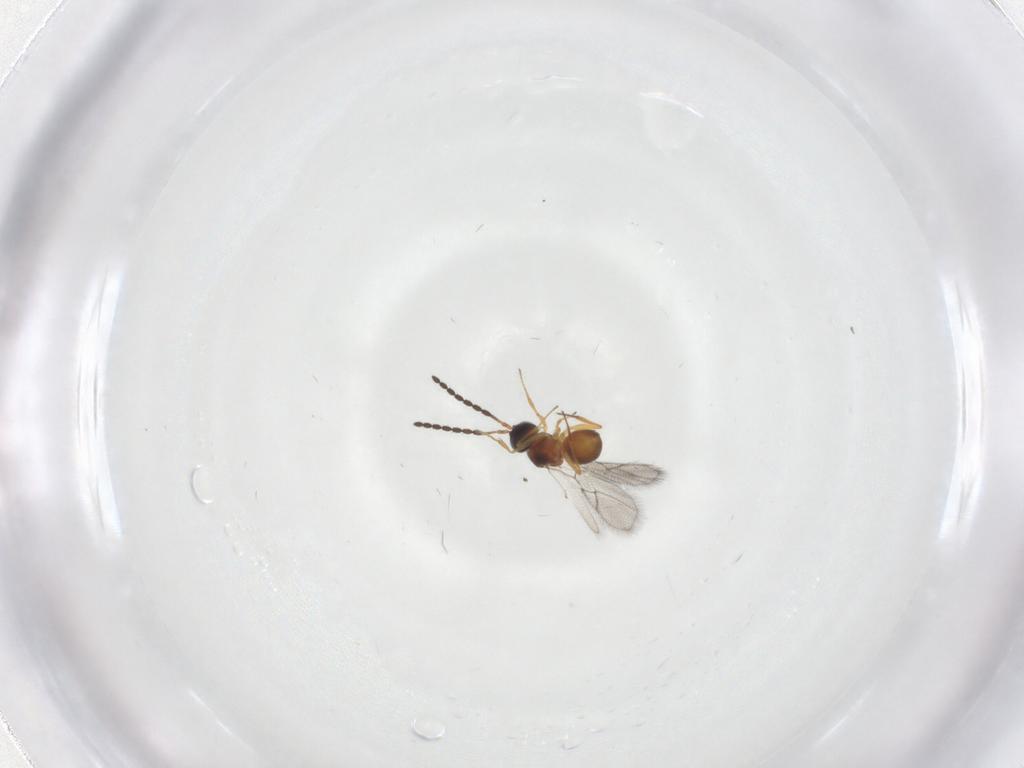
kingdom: Animalia
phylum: Arthropoda
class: Insecta
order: Hymenoptera
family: Figitidae
